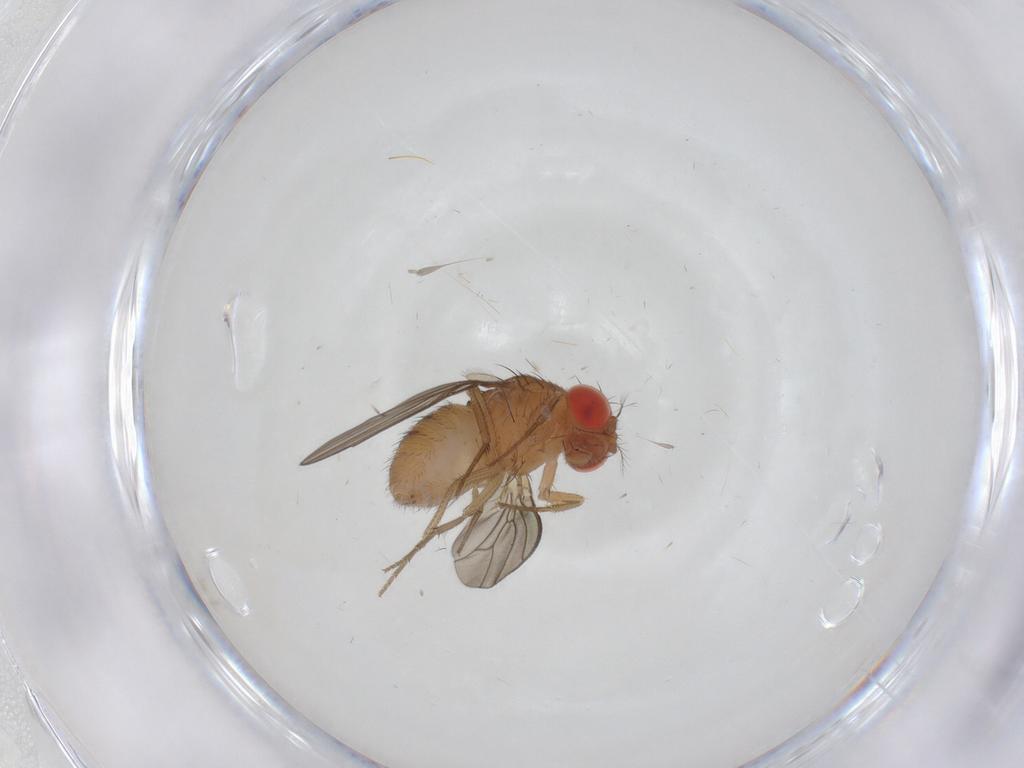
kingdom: Animalia
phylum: Arthropoda
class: Insecta
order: Diptera
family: Drosophilidae
